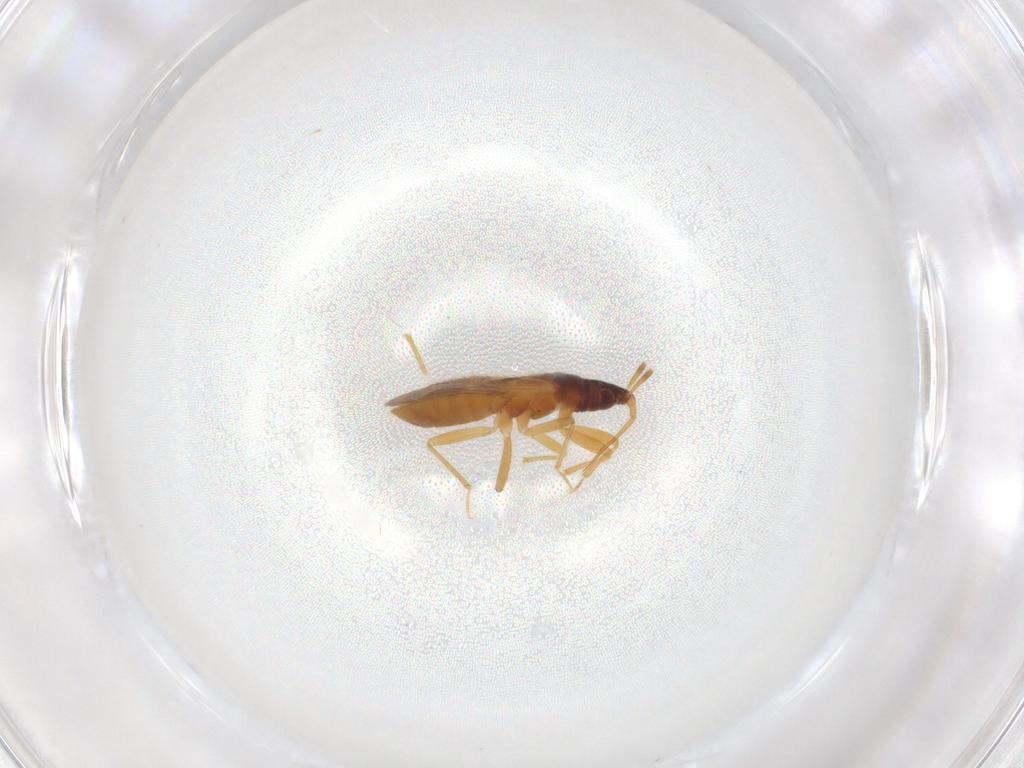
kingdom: Animalia
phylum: Arthropoda
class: Insecta
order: Hemiptera
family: Lasiochilidae
